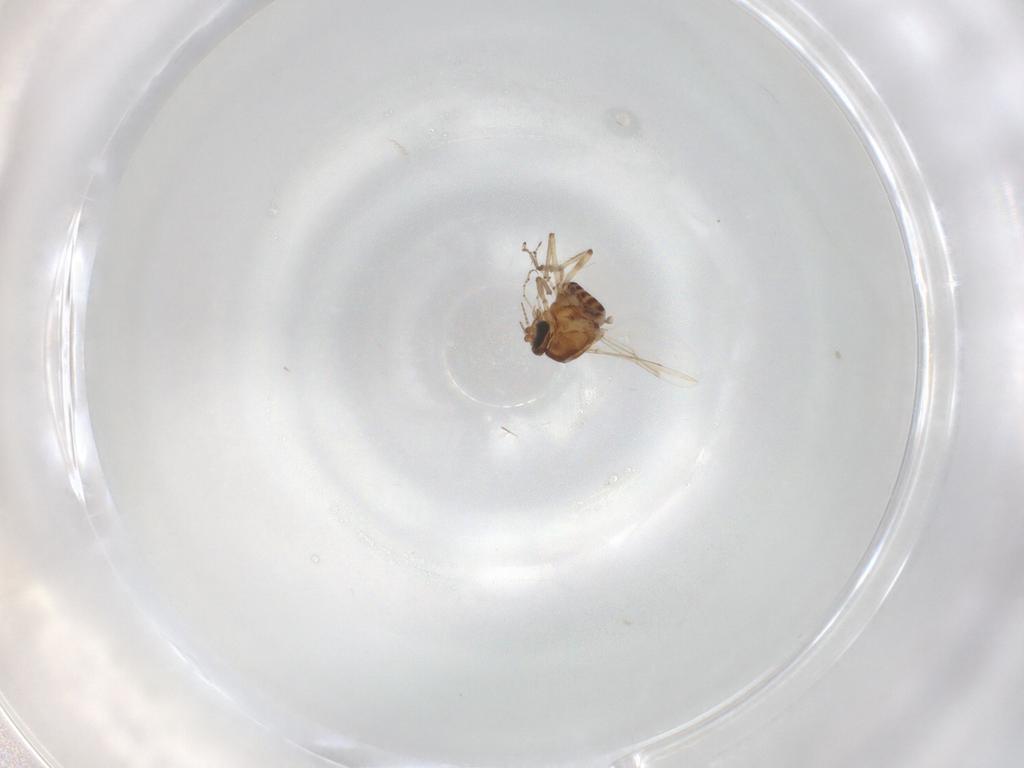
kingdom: Animalia
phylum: Arthropoda
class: Insecta
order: Diptera
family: Ceratopogonidae
